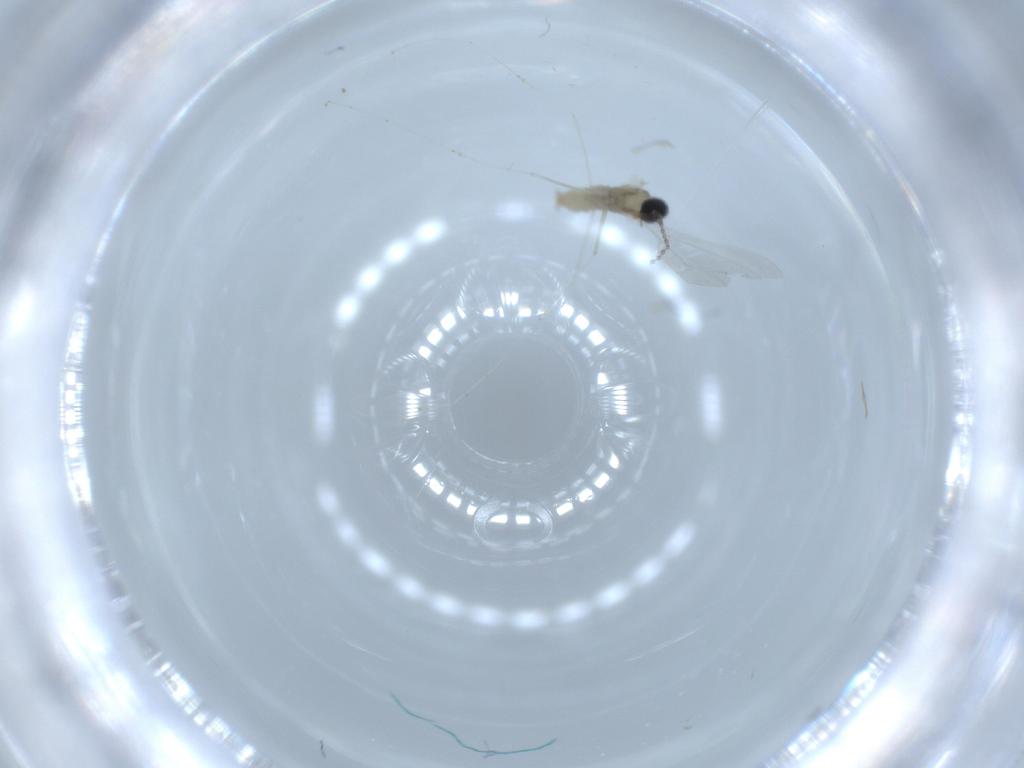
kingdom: Animalia
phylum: Arthropoda
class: Insecta
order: Diptera
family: Cecidomyiidae
